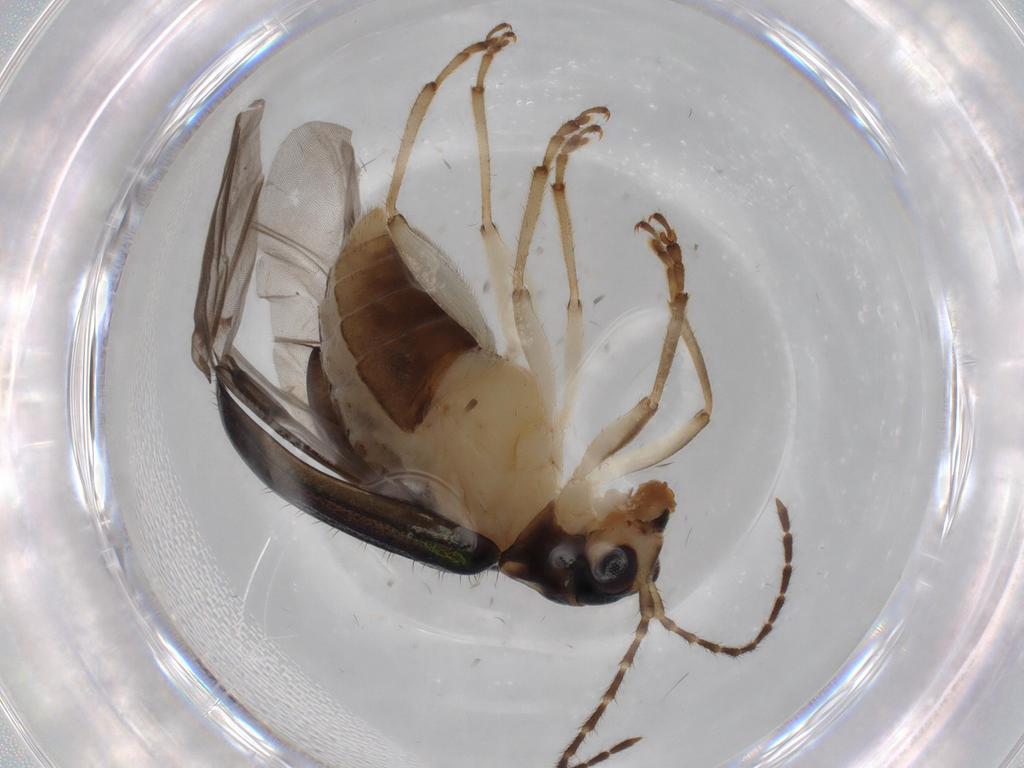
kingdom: Animalia
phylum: Arthropoda
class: Insecta
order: Coleoptera
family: Chrysomelidae
